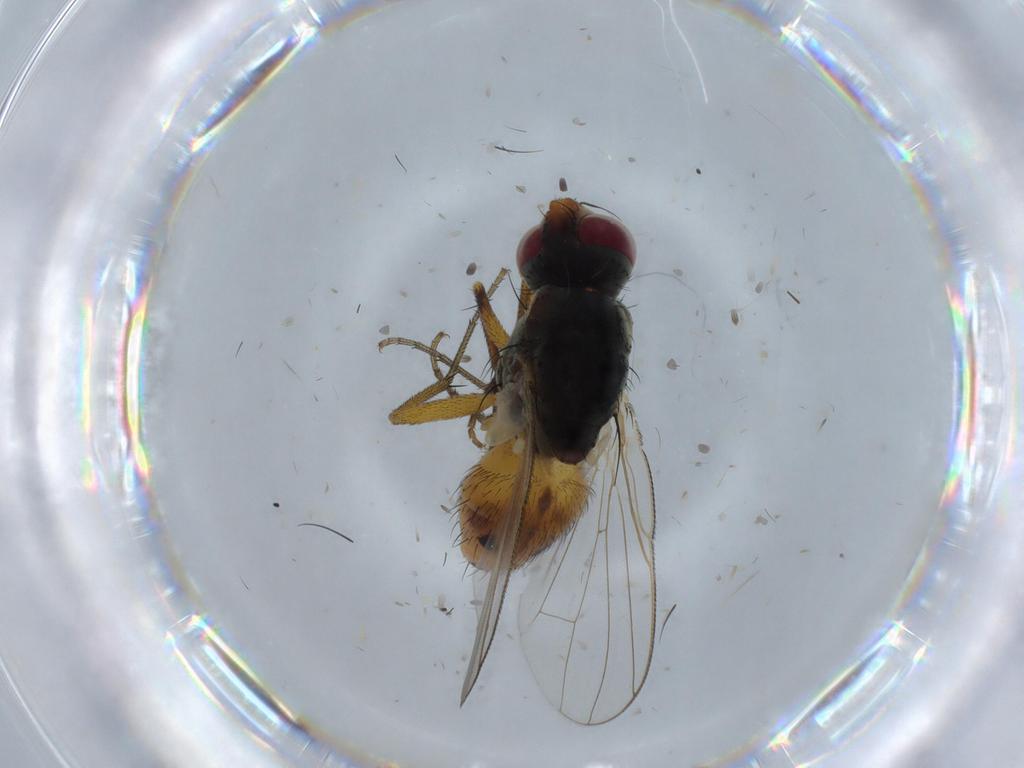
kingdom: Animalia
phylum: Arthropoda
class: Insecta
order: Diptera
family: Muscidae
